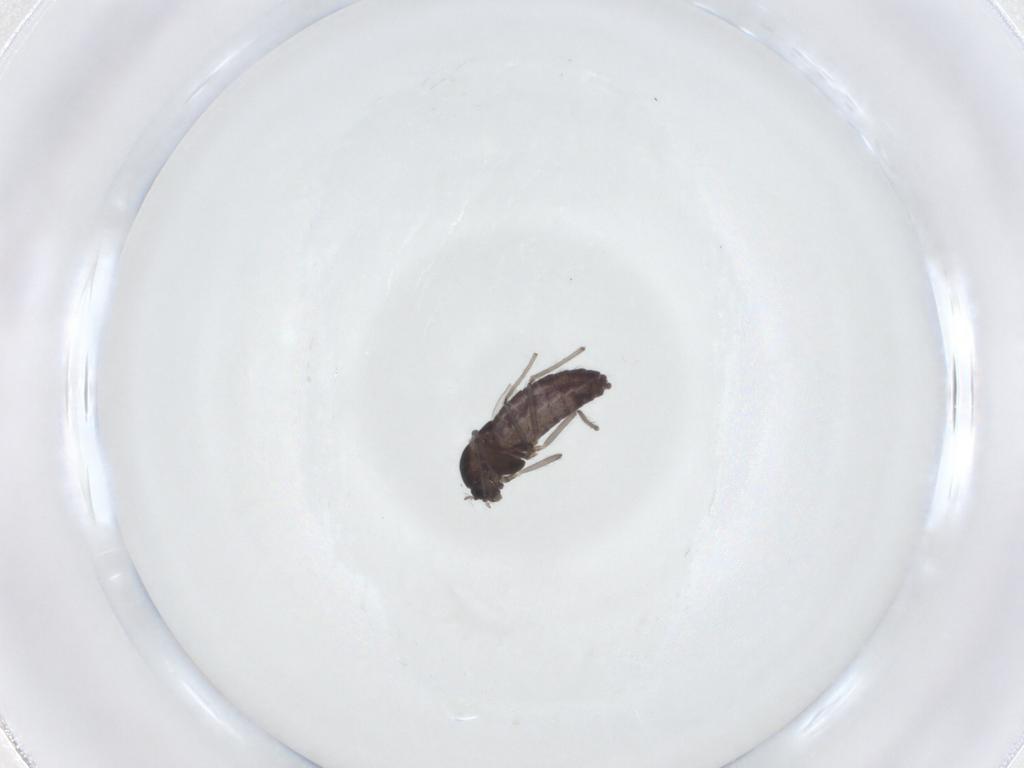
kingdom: Animalia
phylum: Arthropoda
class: Insecta
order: Diptera
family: Chironomidae
